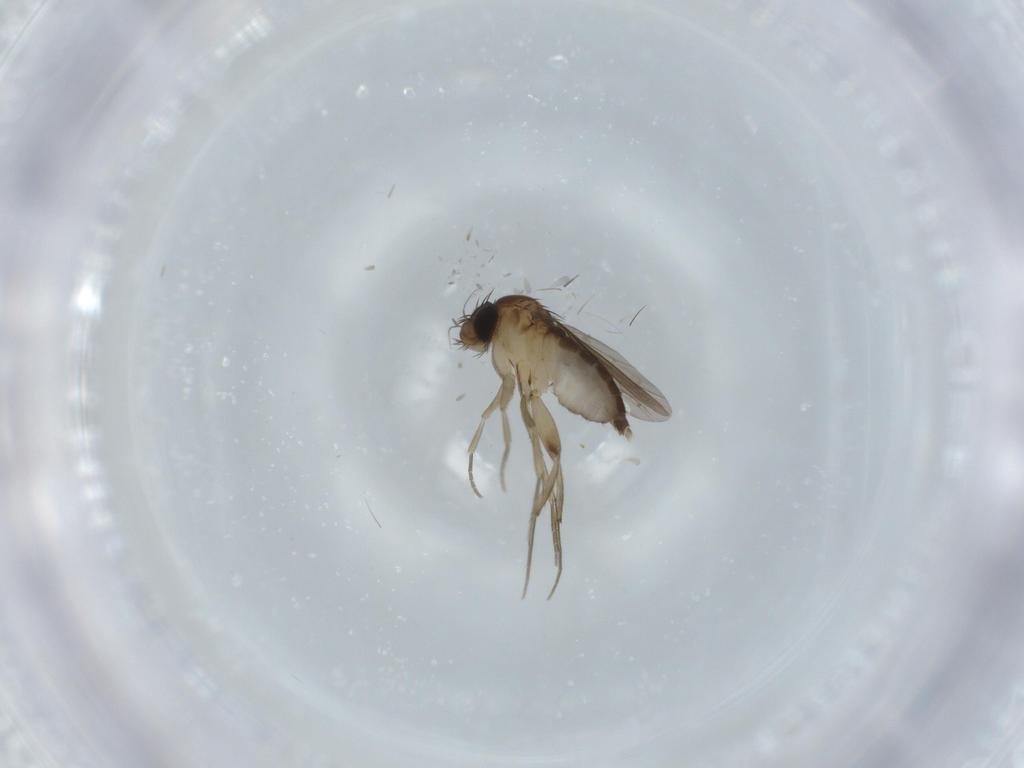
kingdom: Animalia
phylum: Arthropoda
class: Insecta
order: Diptera
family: Phoridae
